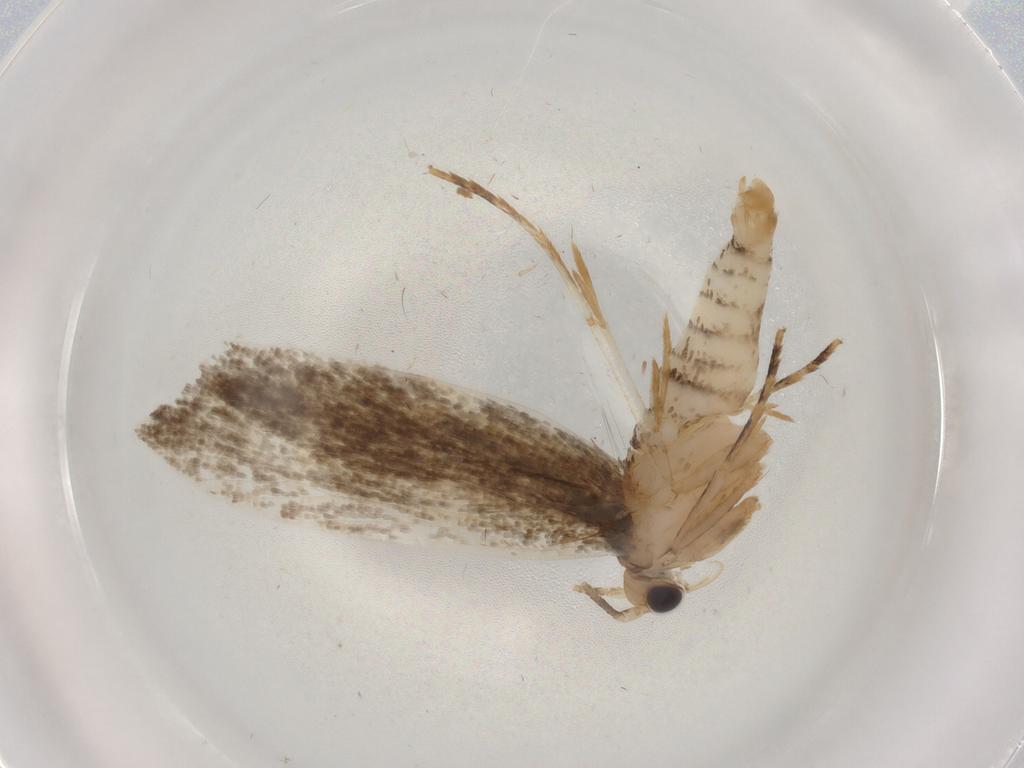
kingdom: Animalia
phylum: Arthropoda
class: Insecta
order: Lepidoptera
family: Tineidae
